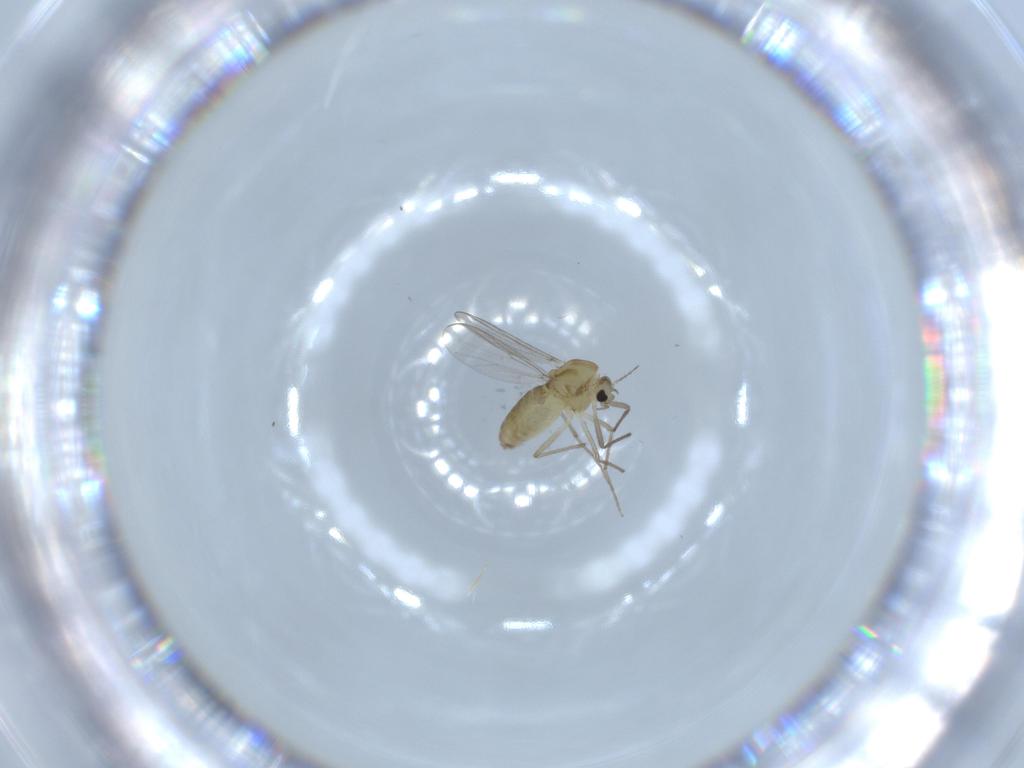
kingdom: Animalia
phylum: Arthropoda
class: Insecta
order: Diptera
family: Chironomidae
